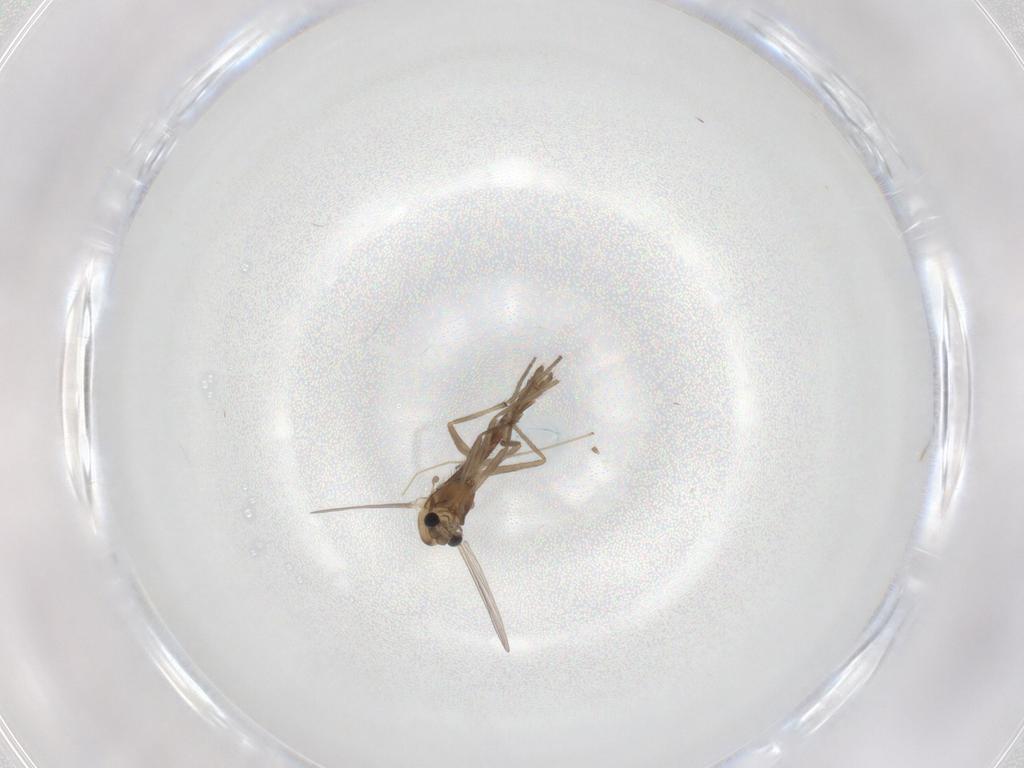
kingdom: Animalia
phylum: Arthropoda
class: Insecta
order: Diptera
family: Chironomidae
